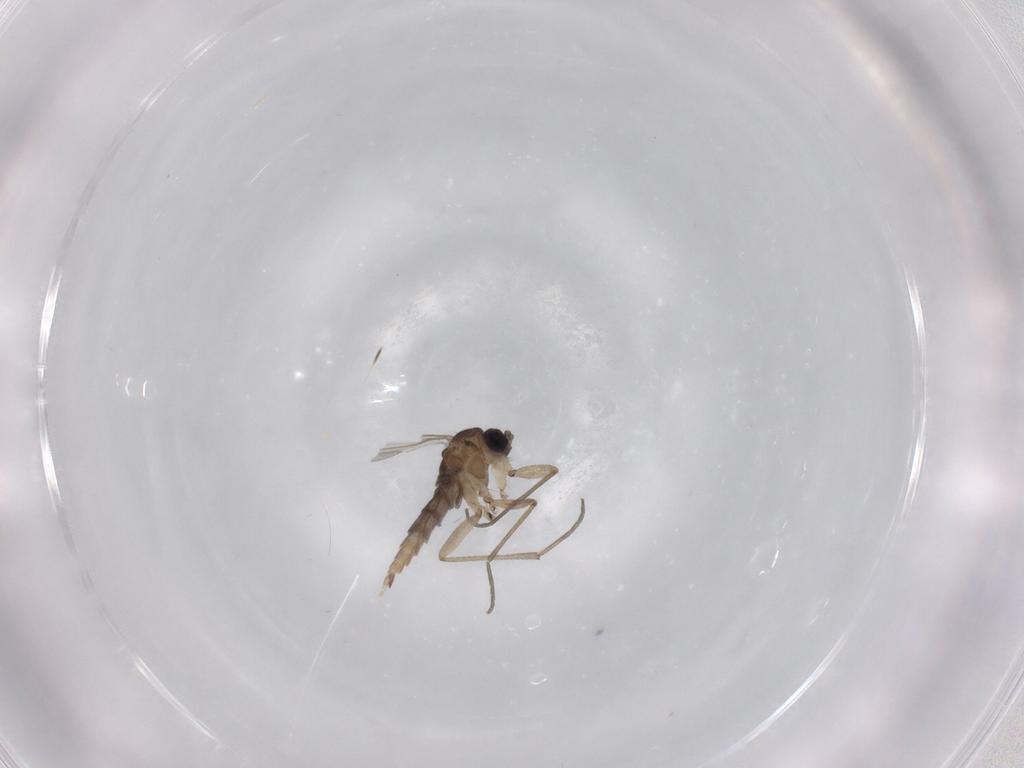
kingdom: Animalia
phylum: Arthropoda
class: Insecta
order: Diptera
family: Sciaridae
